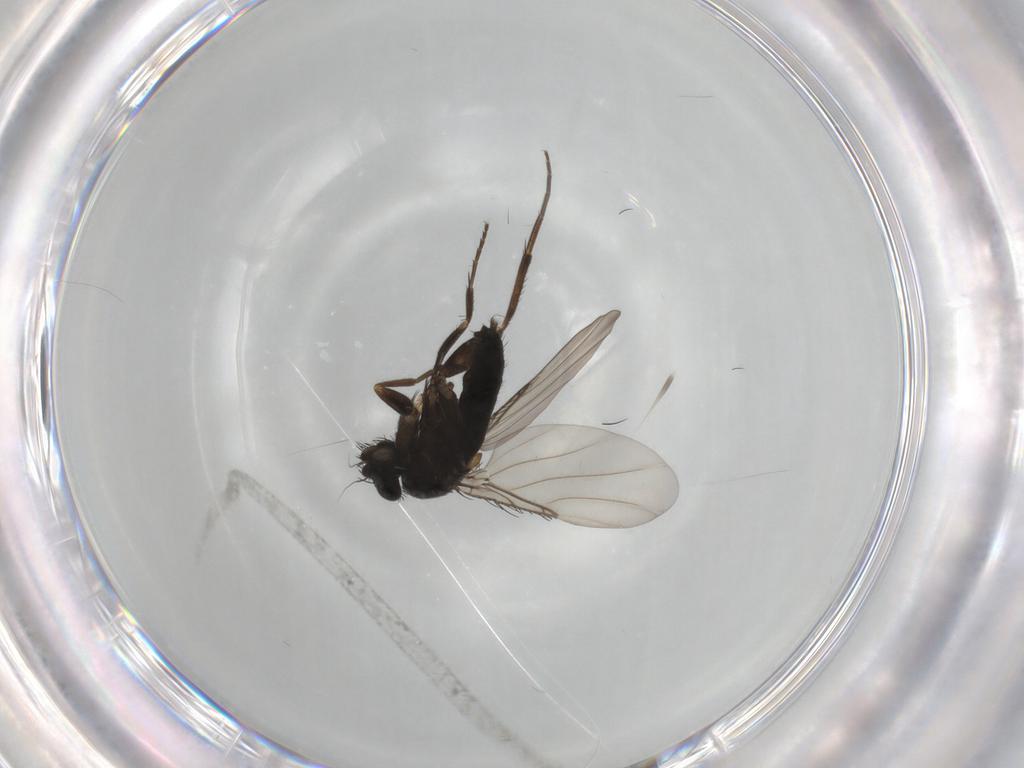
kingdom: Animalia
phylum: Arthropoda
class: Insecta
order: Diptera
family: Phoridae
